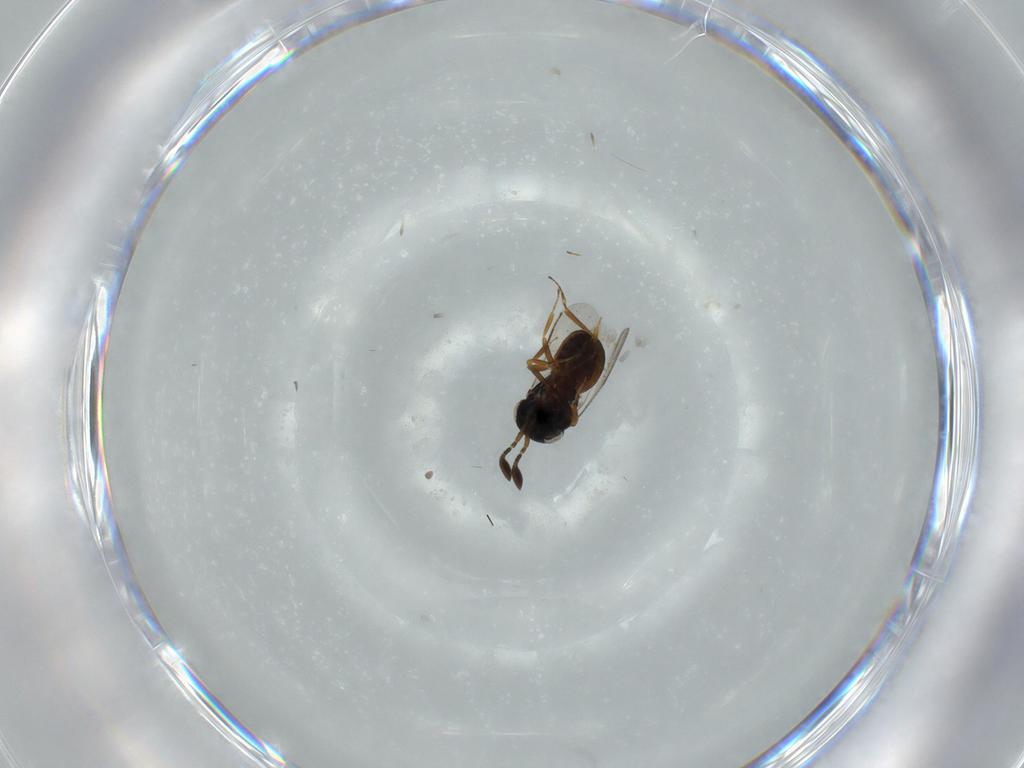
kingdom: Animalia
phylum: Arthropoda
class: Insecta
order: Coleoptera
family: Curculionidae
